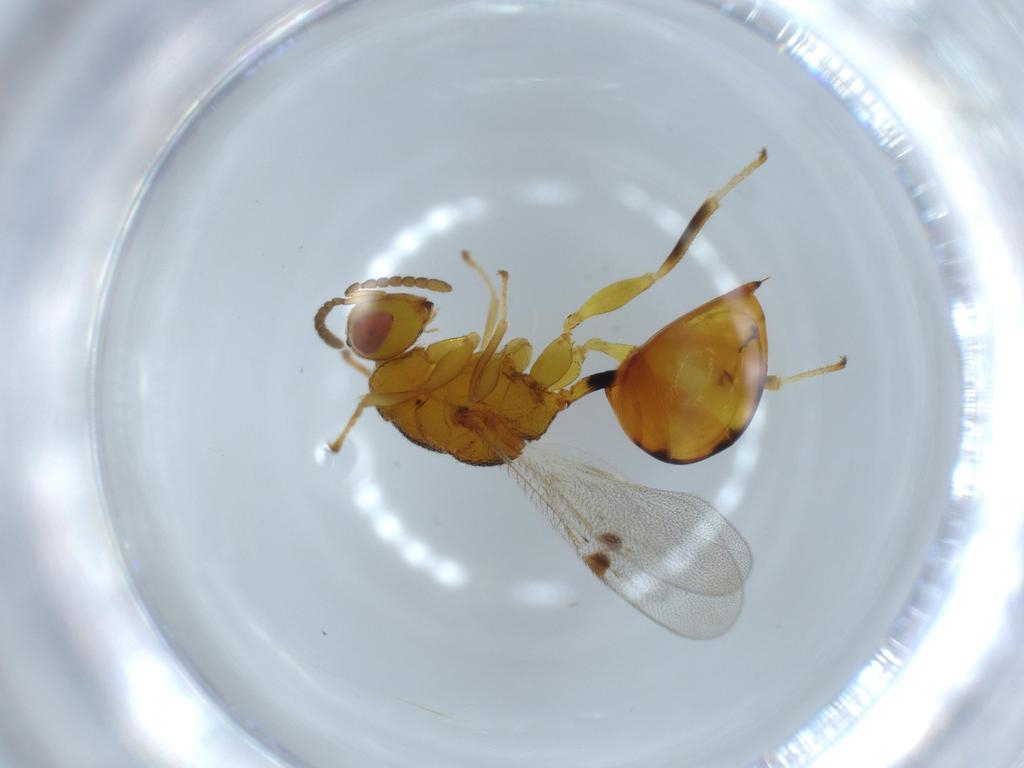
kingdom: Animalia
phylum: Arthropoda
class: Insecta
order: Hymenoptera
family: Eurytomidae
